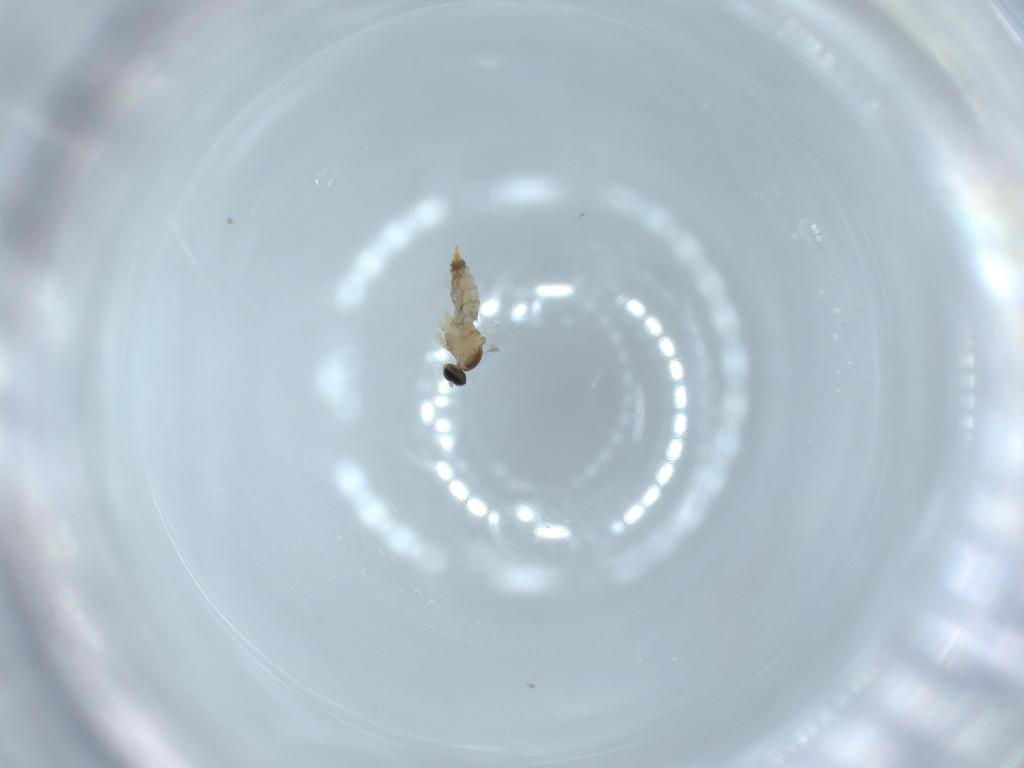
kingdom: Animalia
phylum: Arthropoda
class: Insecta
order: Diptera
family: Cecidomyiidae
